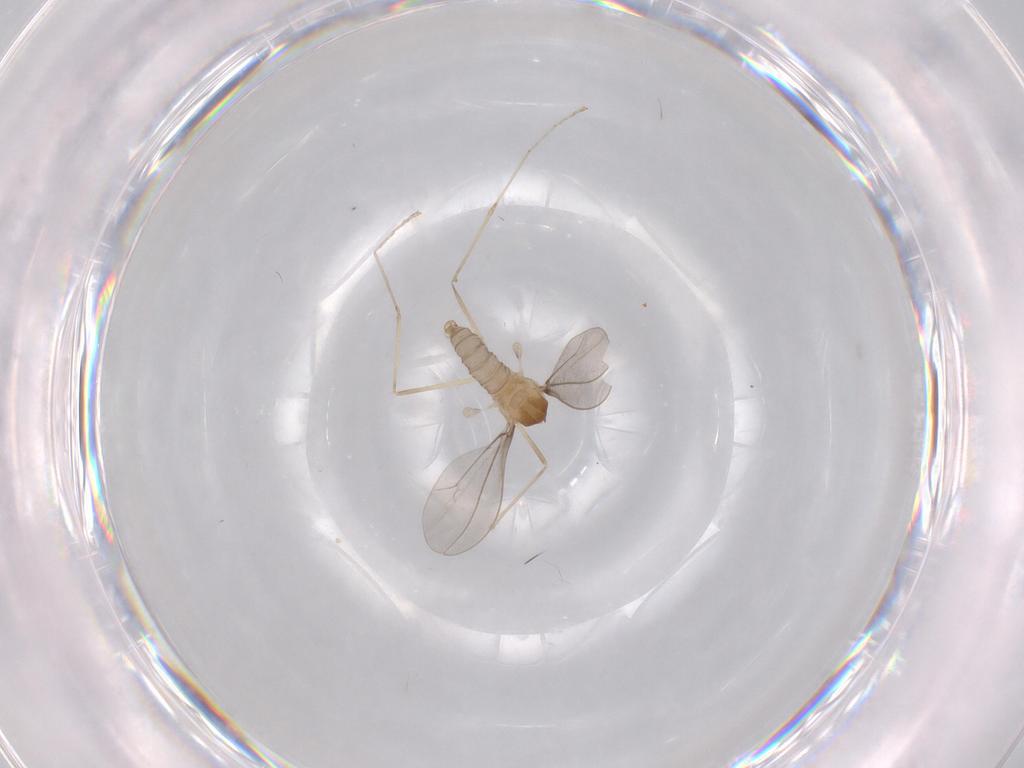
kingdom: Animalia
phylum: Arthropoda
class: Insecta
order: Diptera
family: Cecidomyiidae
